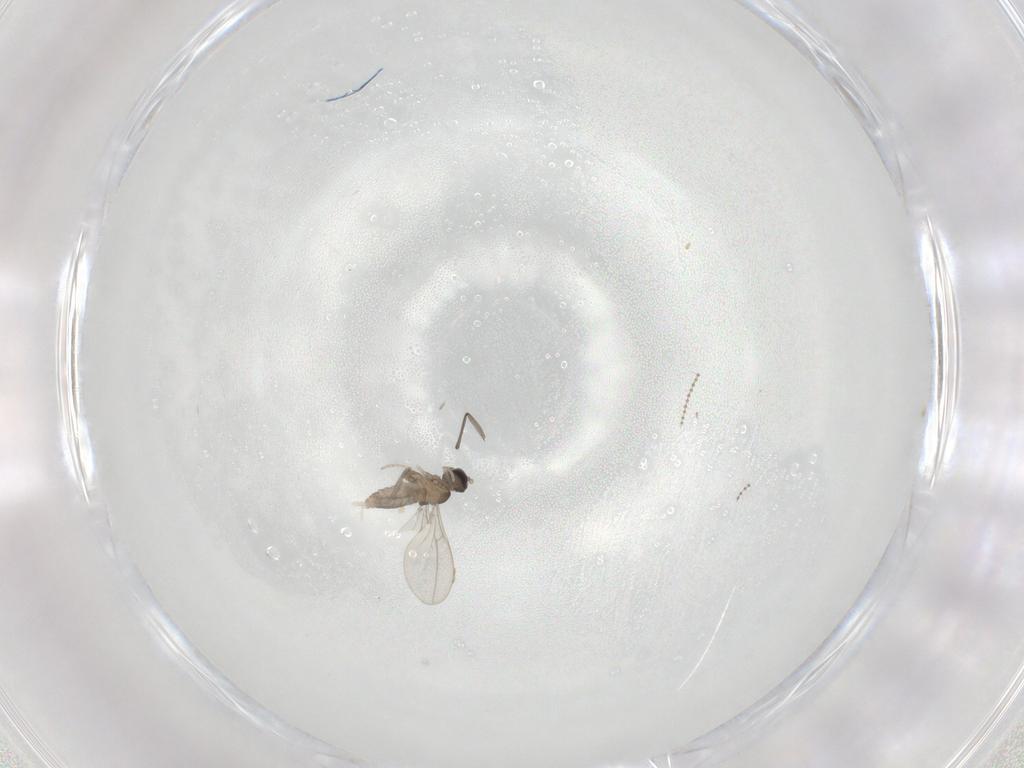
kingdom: Animalia
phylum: Arthropoda
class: Insecta
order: Diptera
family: Cecidomyiidae
